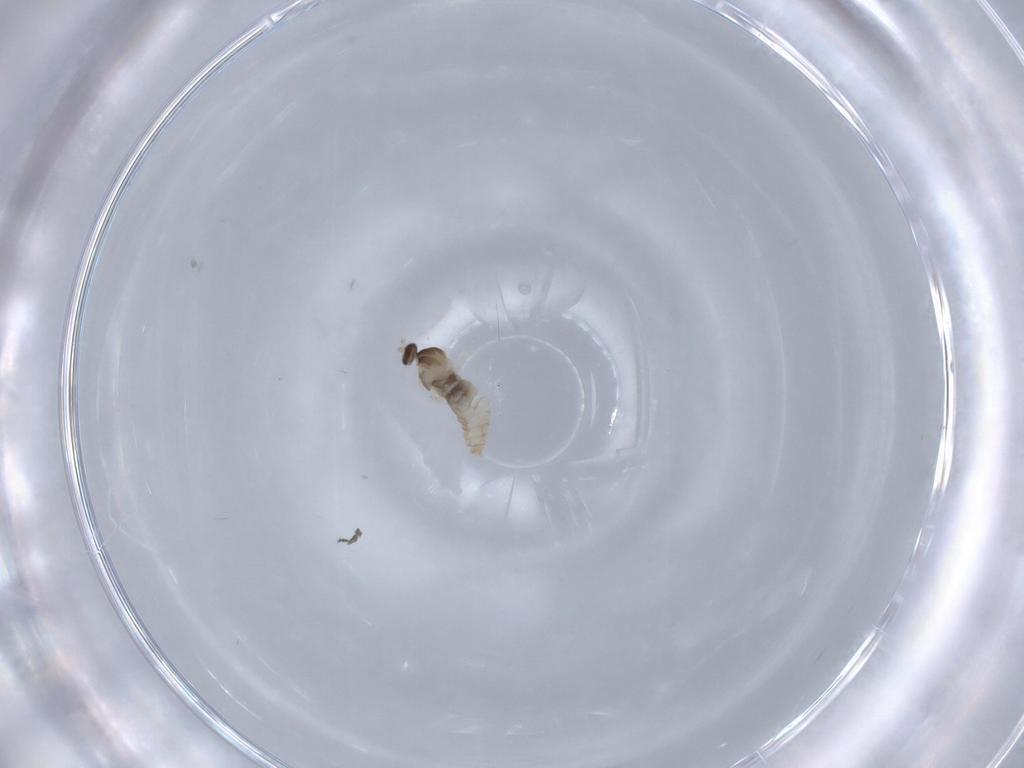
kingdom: Animalia
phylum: Arthropoda
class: Insecta
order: Diptera
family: Cecidomyiidae
